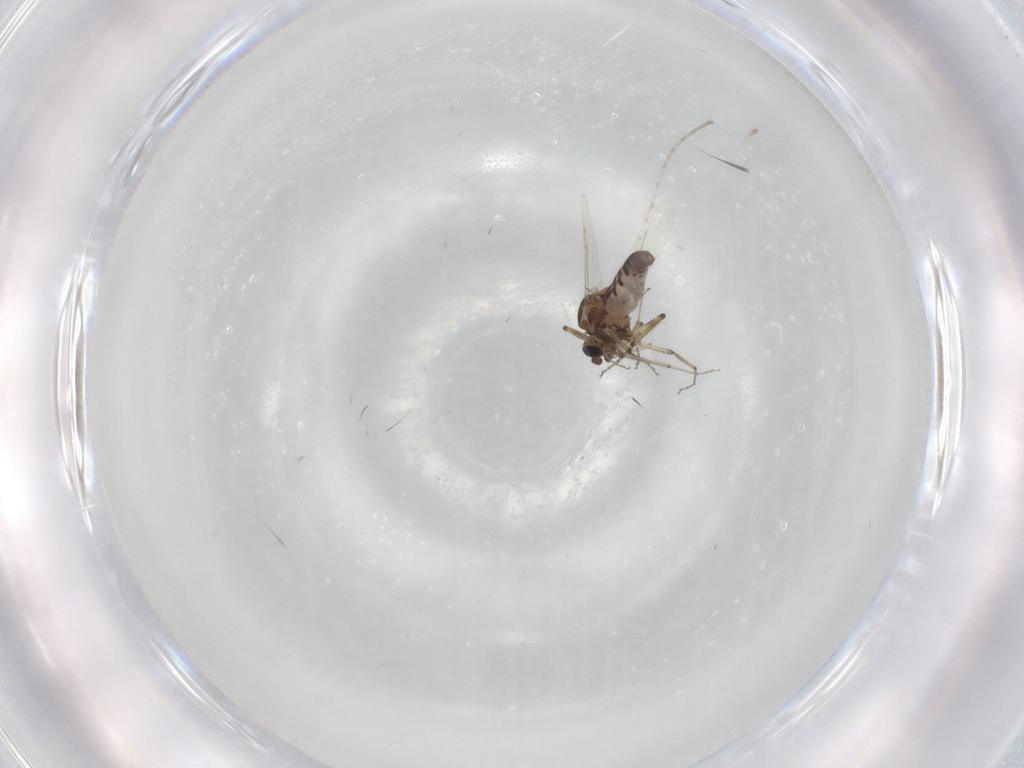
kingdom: Animalia
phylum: Arthropoda
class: Insecta
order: Diptera
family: Ceratopogonidae
